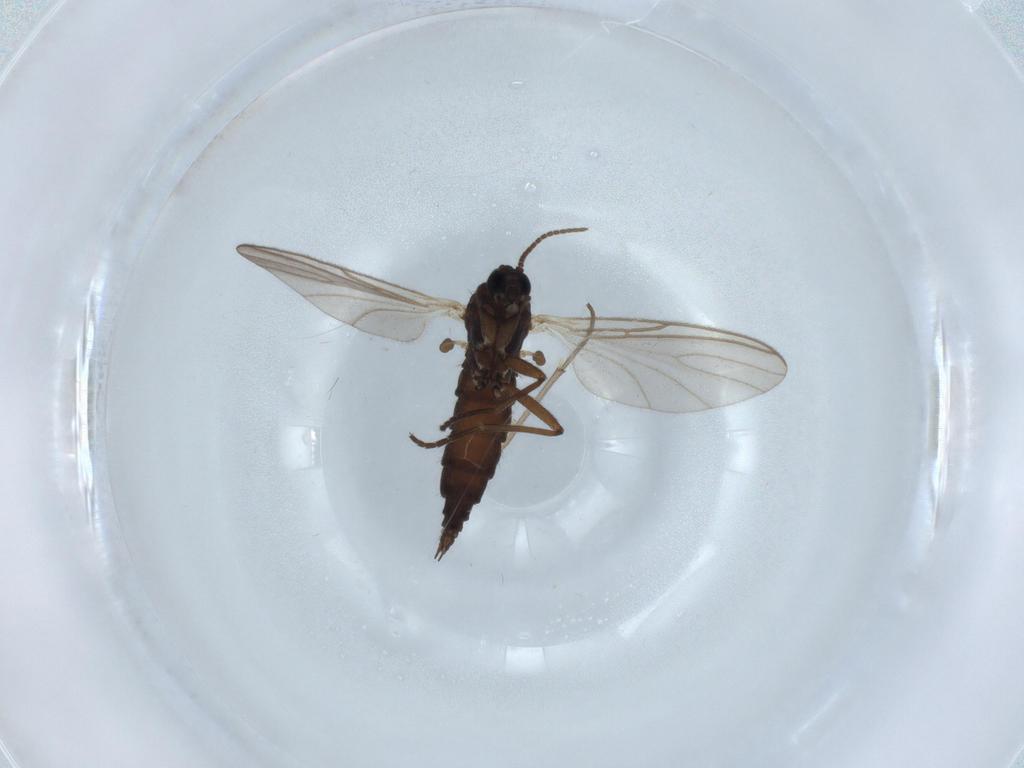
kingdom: Animalia
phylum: Arthropoda
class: Insecta
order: Diptera
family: Sciaridae
